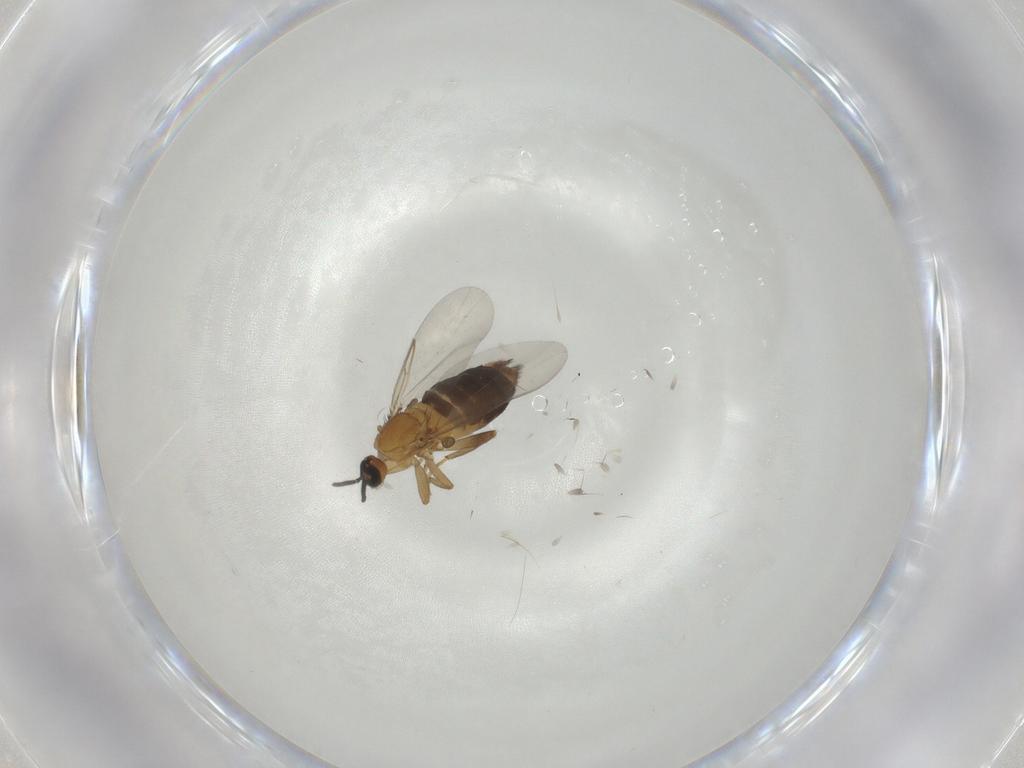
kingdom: Animalia
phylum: Arthropoda
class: Insecta
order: Diptera
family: Scatopsidae
